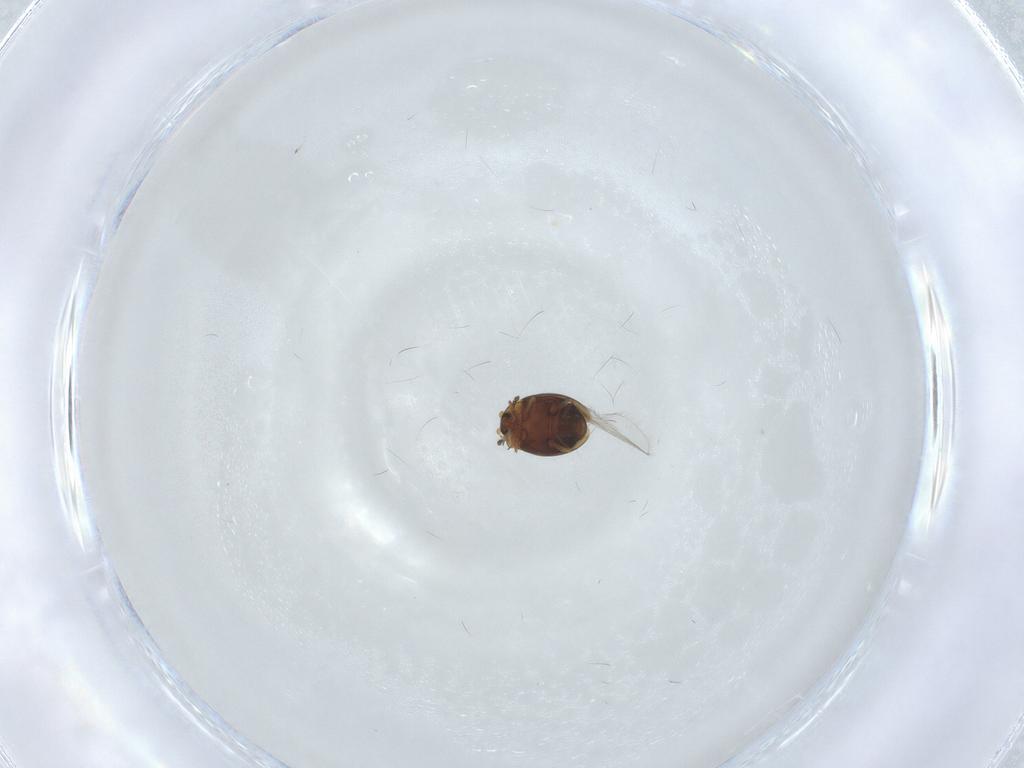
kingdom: Animalia
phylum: Arthropoda
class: Insecta
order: Coleoptera
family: Corylophidae
